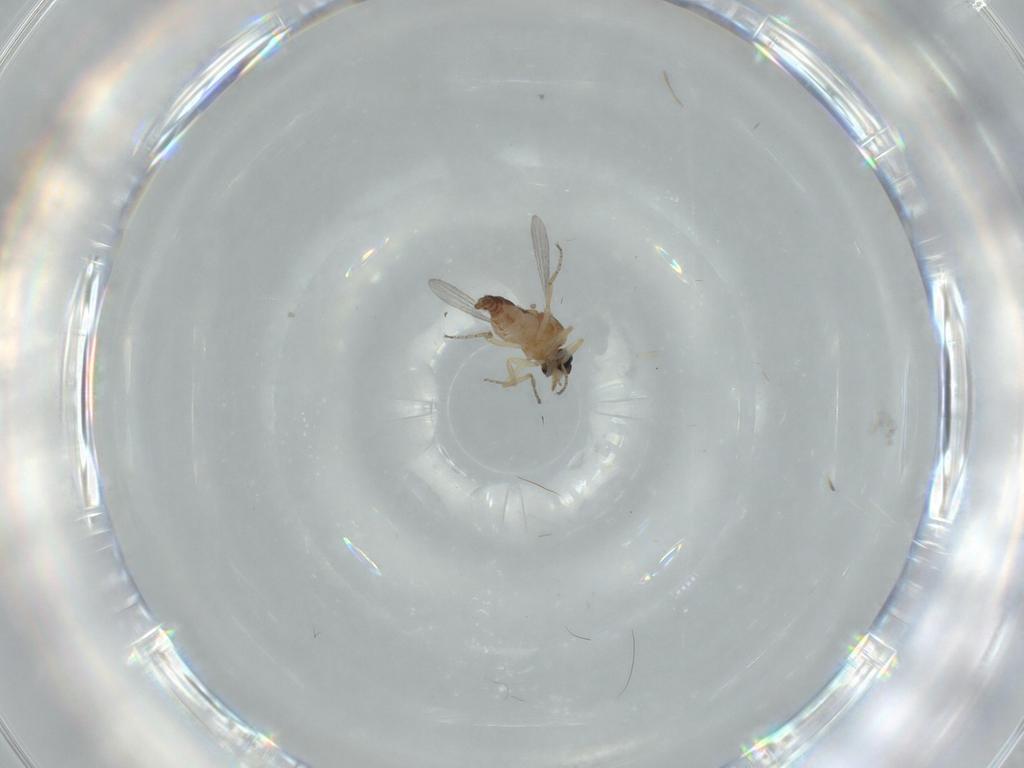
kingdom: Animalia
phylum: Arthropoda
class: Insecta
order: Diptera
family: Ceratopogonidae
